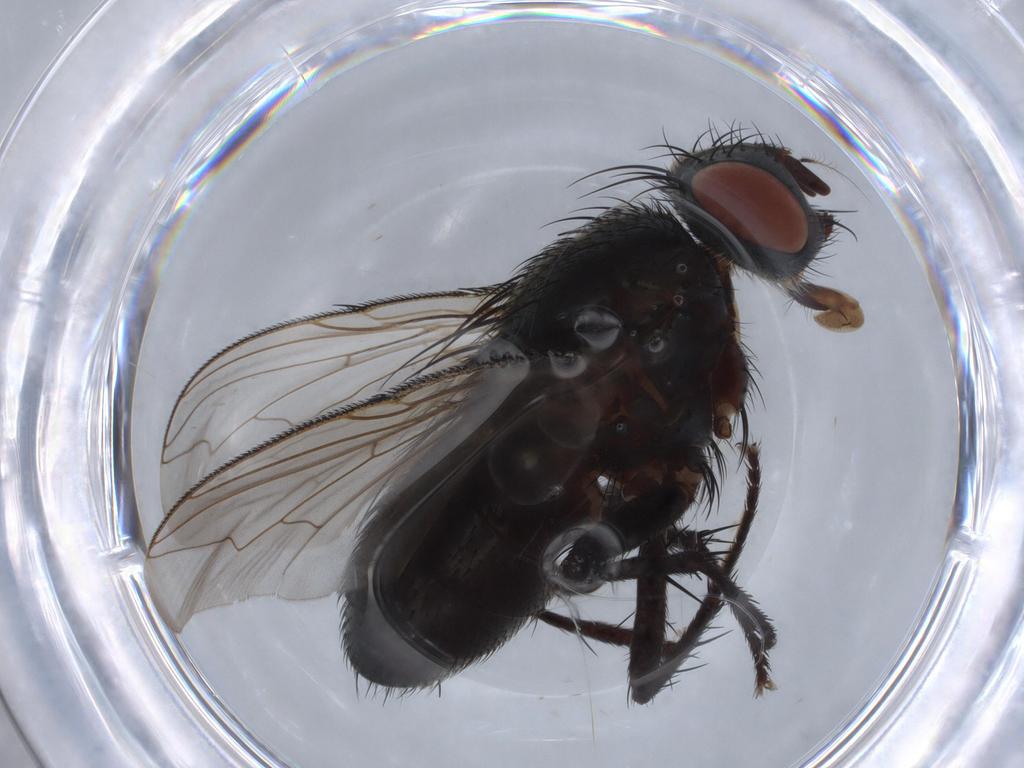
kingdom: Animalia
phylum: Arthropoda
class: Insecta
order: Diptera
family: Sarcophagidae
